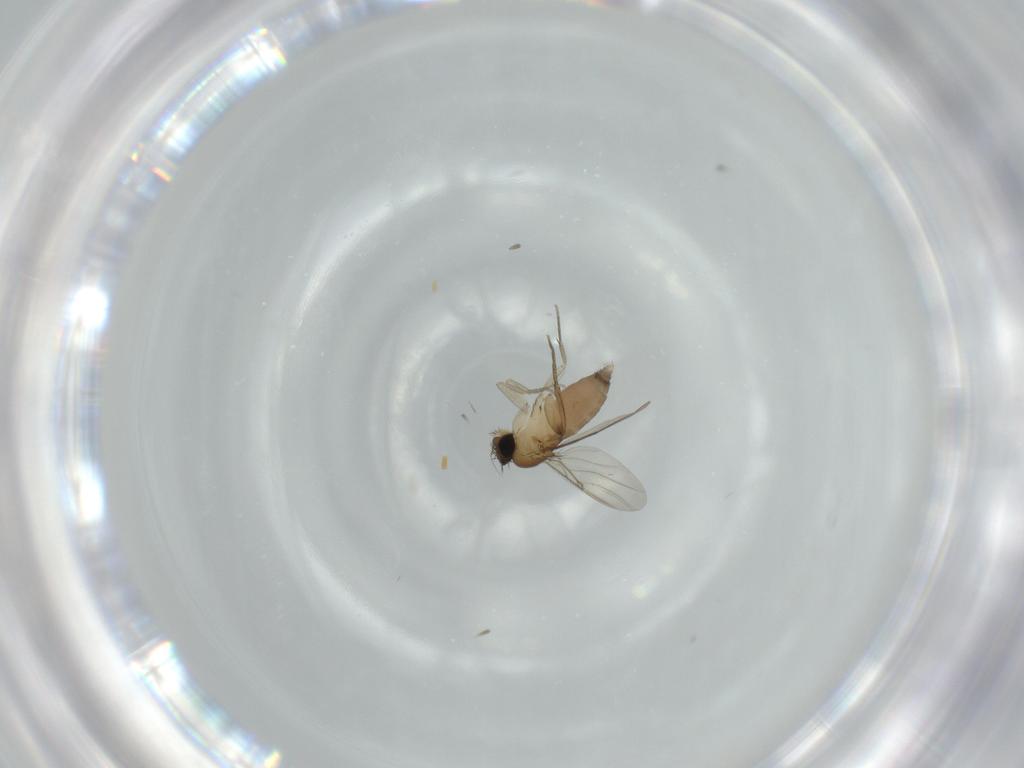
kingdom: Animalia
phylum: Arthropoda
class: Insecta
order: Diptera
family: Phoridae
